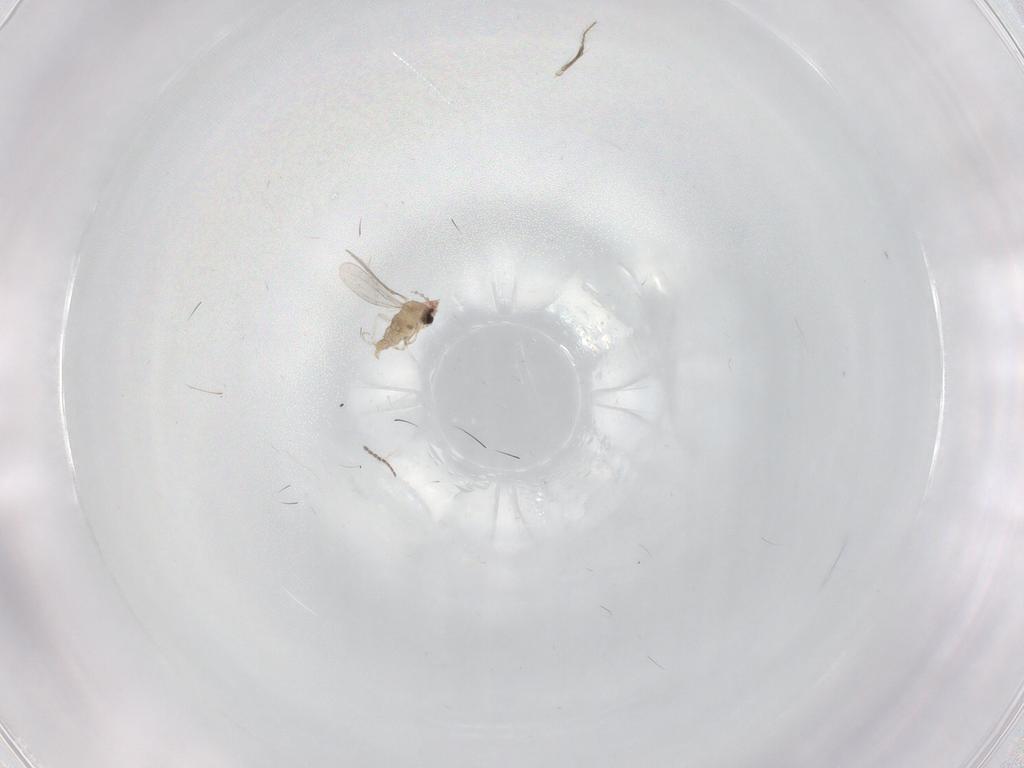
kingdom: Animalia
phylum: Arthropoda
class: Insecta
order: Diptera
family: Cecidomyiidae
